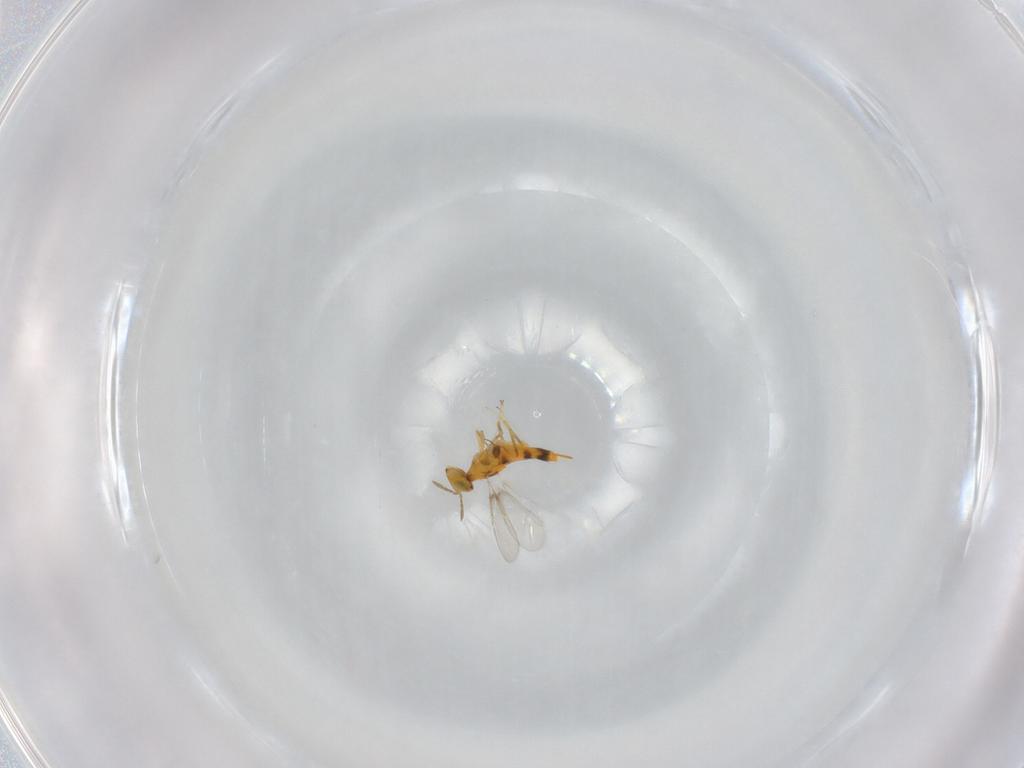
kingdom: Animalia
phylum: Arthropoda
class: Insecta
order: Hymenoptera
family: Aphelinidae
